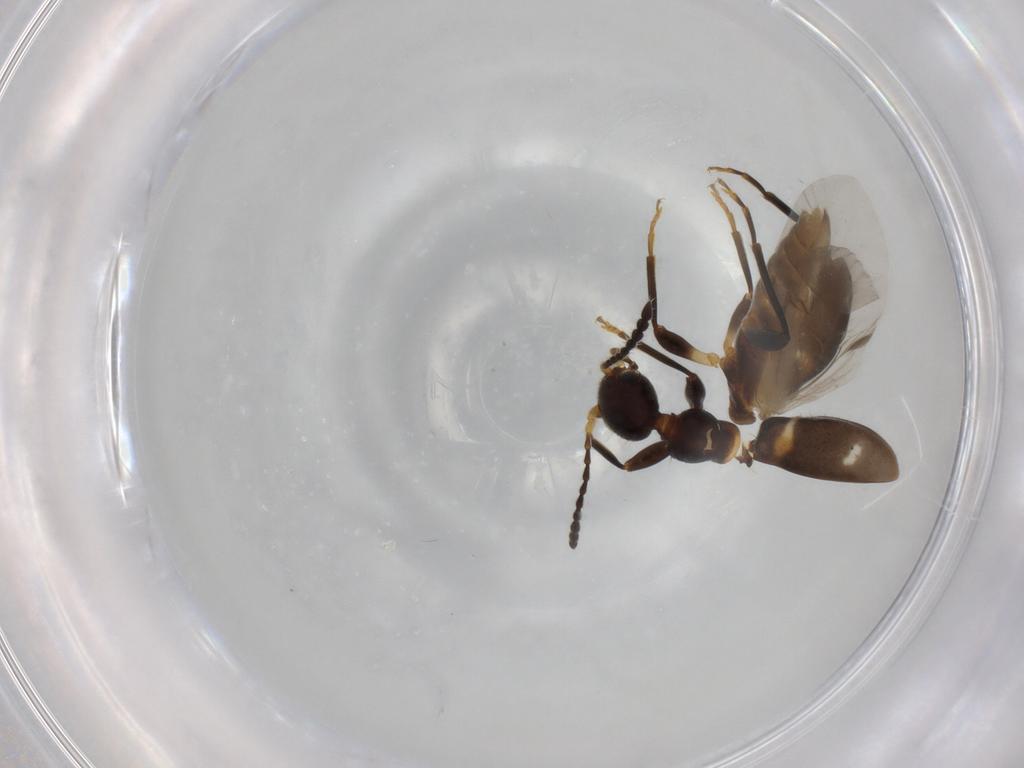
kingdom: Animalia
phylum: Arthropoda
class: Insecta
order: Coleoptera
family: Anthicidae
